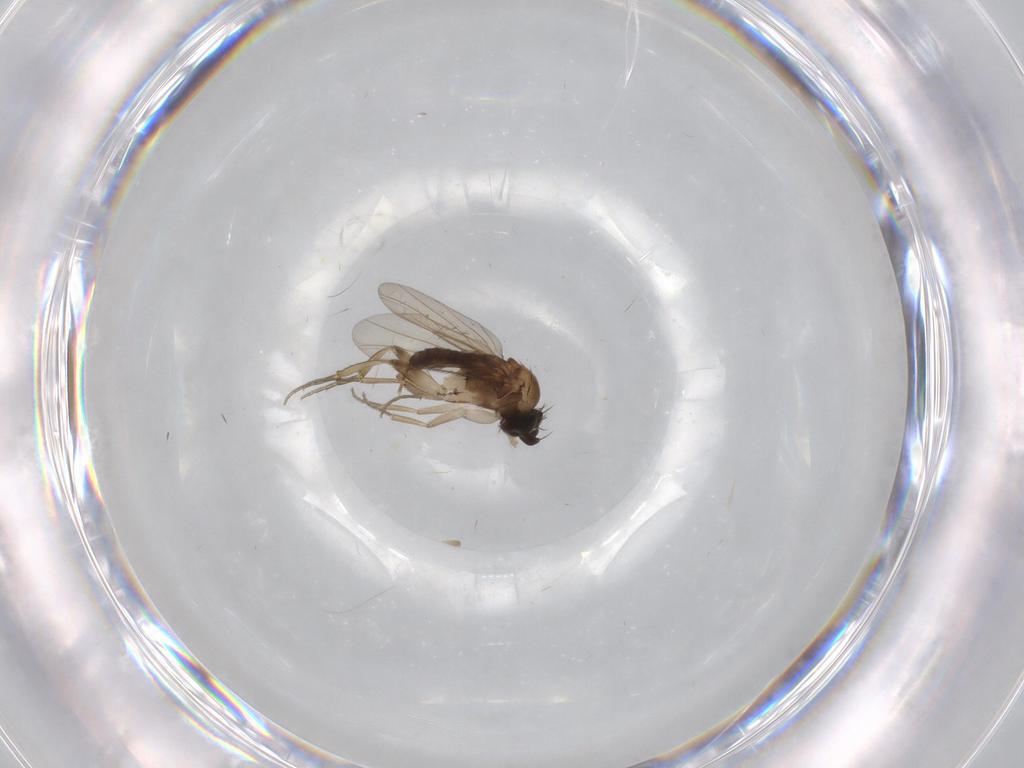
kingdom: Animalia
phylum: Arthropoda
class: Insecta
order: Diptera
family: Phoridae
